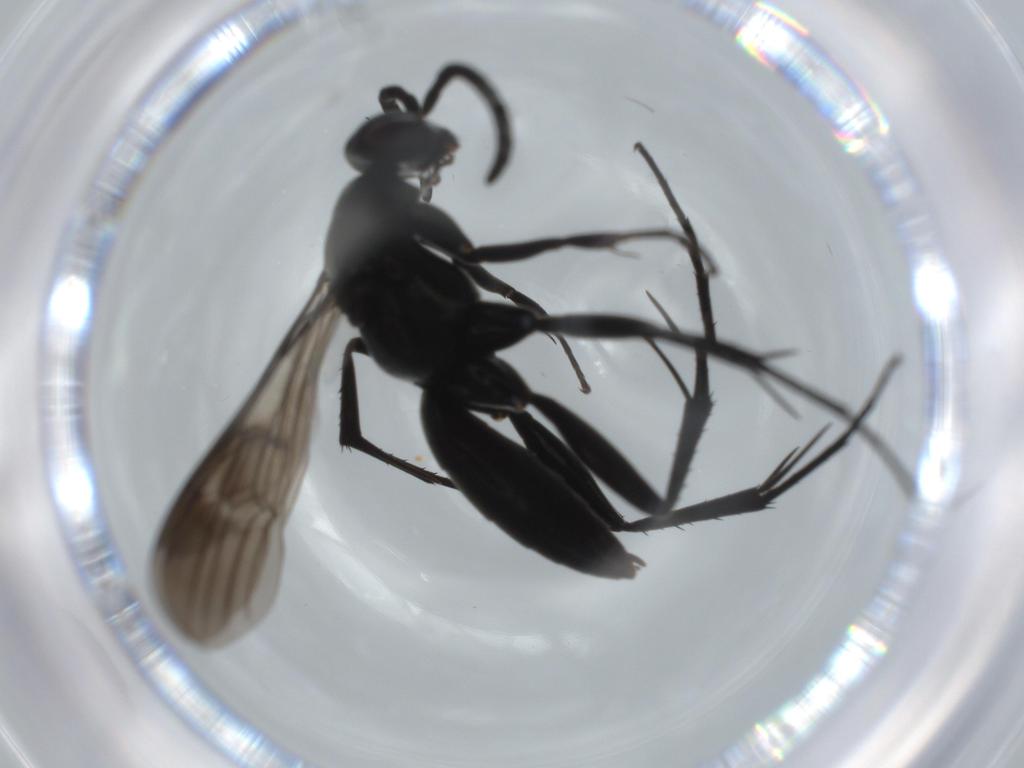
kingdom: Animalia
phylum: Arthropoda
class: Insecta
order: Hymenoptera
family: Pompilidae
